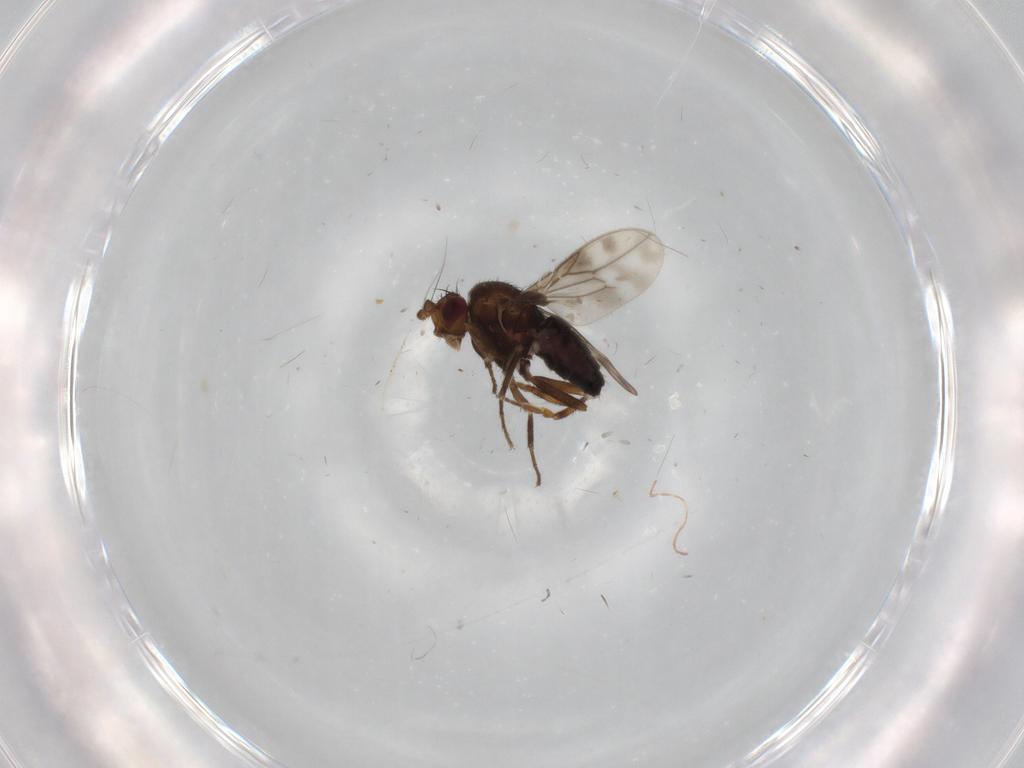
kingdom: Animalia
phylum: Arthropoda
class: Insecta
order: Diptera
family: Sphaeroceridae
